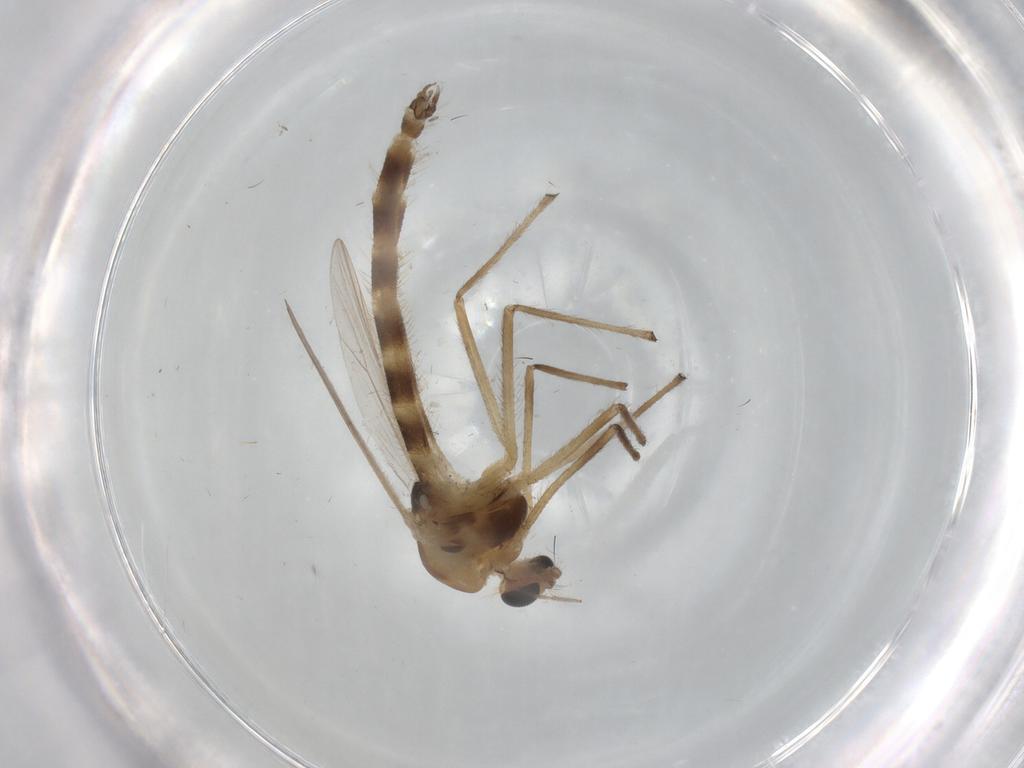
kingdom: Animalia
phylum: Arthropoda
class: Insecta
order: Diptera
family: Chironomidae
